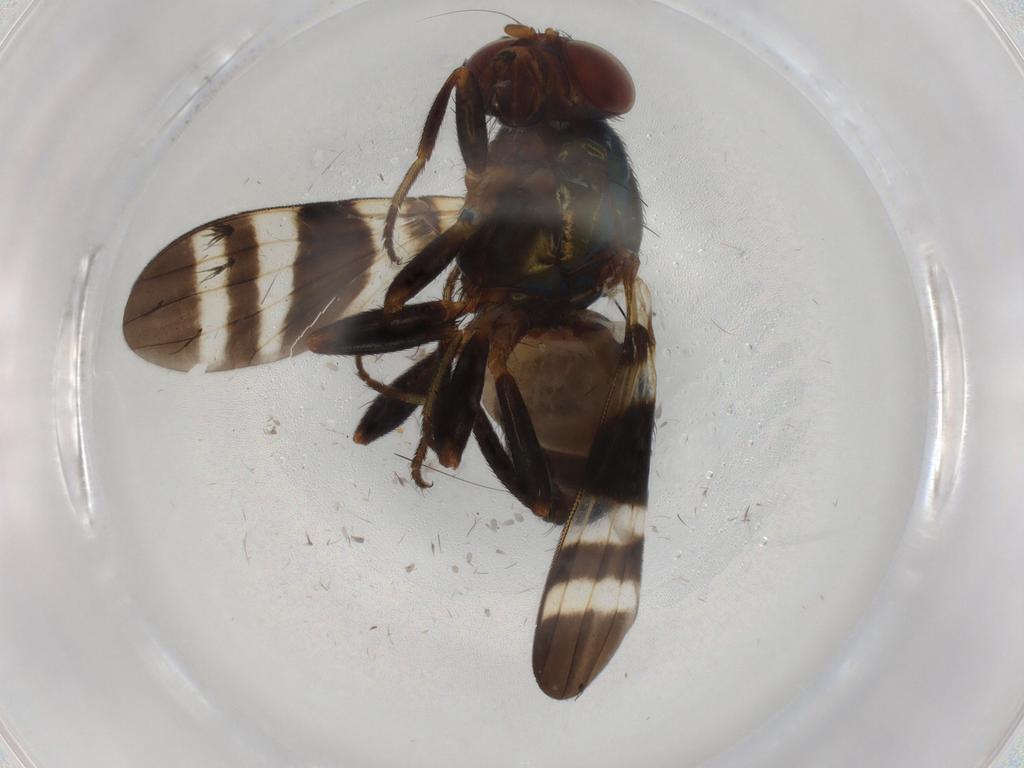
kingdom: Animalia
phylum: Arthropoda
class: Insecta
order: Diptera
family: Ulidiidae
